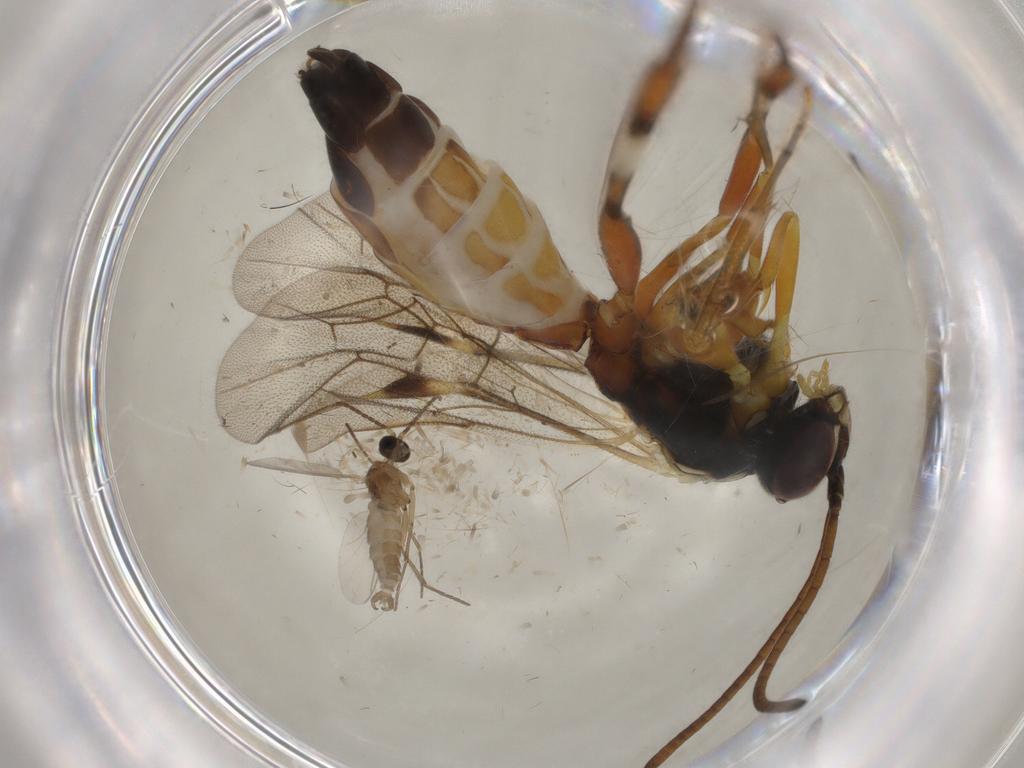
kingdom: Animalia
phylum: Arthropoda
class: Insecta
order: Diptera
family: Sciaridae
